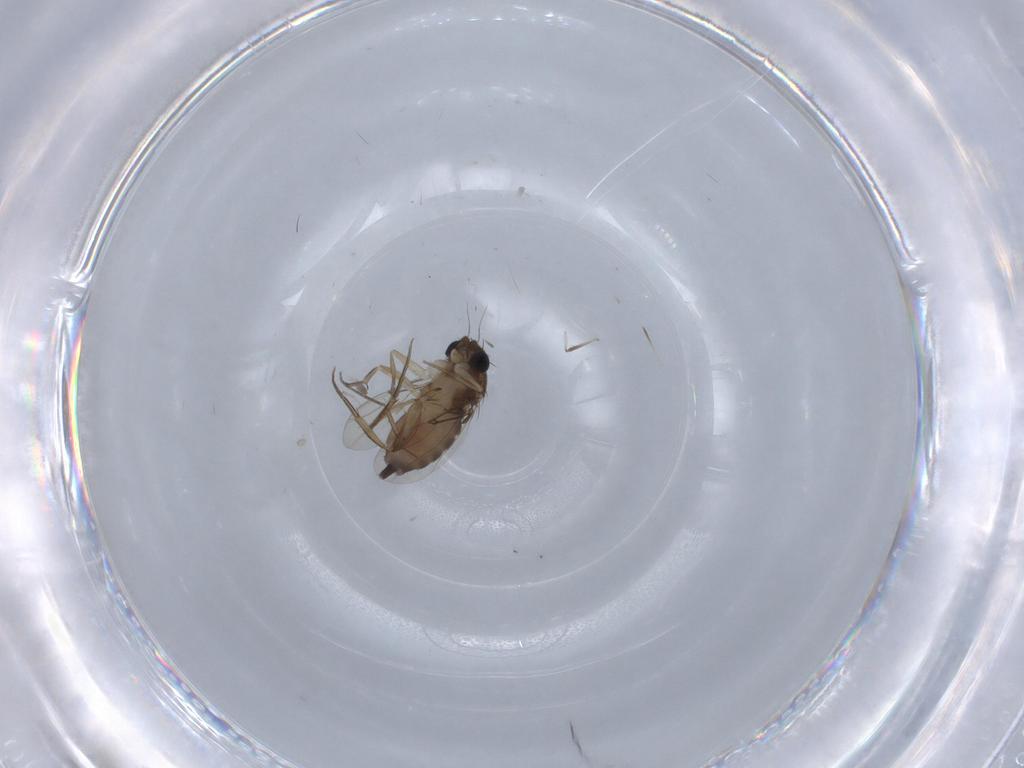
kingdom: Animalia
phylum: Arthropoda
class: Insecta
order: Diptera
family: Phoridae
